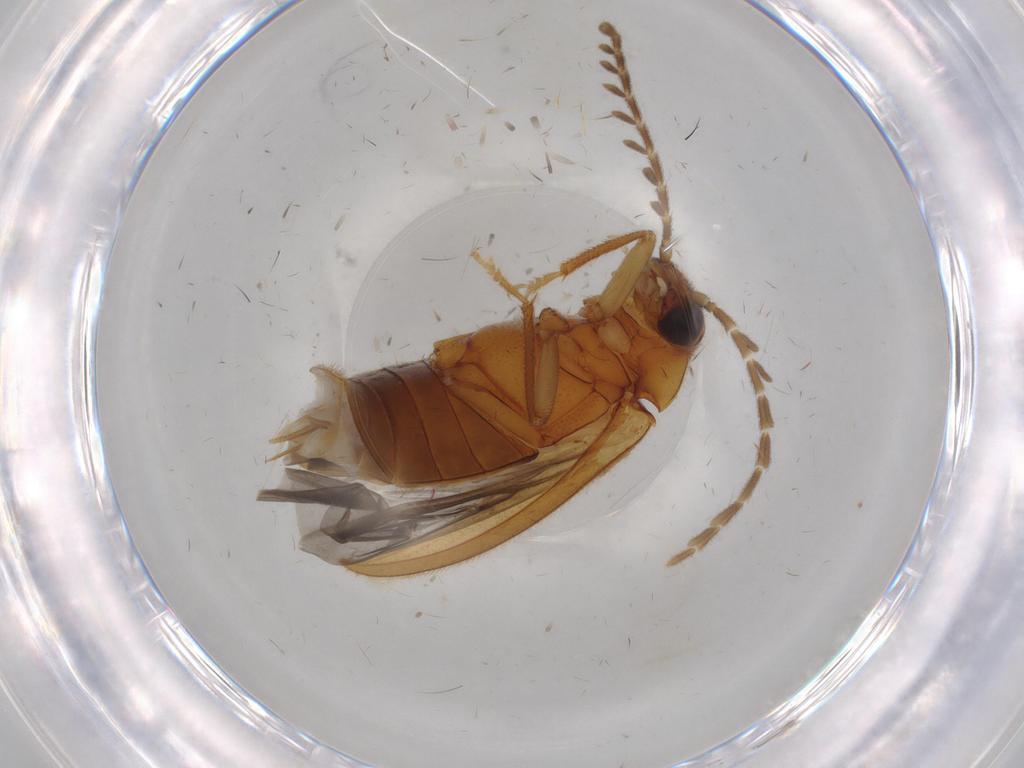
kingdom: Animalia
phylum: Arthropoda
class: Insecta
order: Coleoptera
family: Ptilodactylidae
